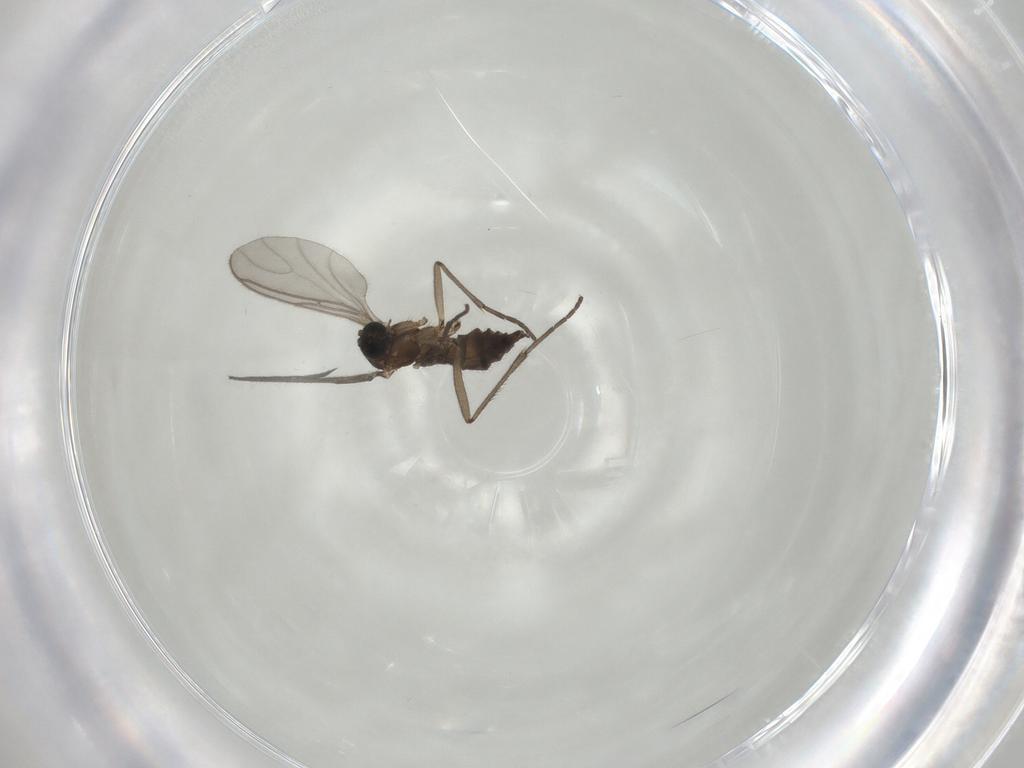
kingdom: Animalia
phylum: Arthropoda
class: Insecta
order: Diptera
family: Sciaridae
